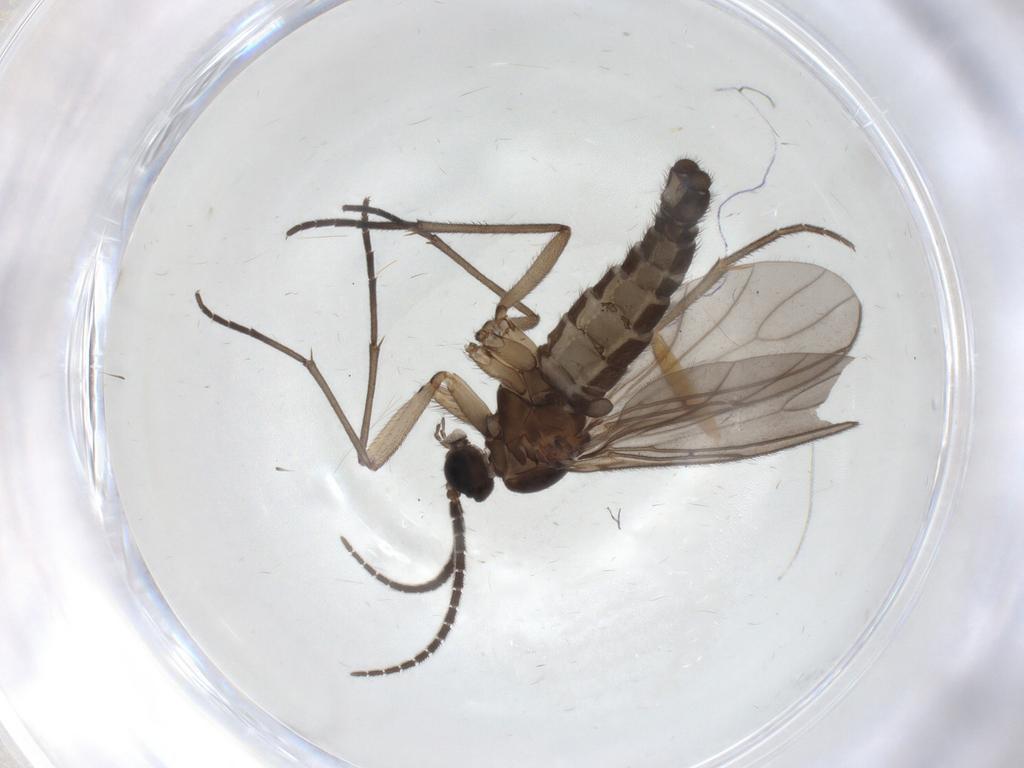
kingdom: Animalia
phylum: Arthropoda
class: Insecta
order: Diptera
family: Sciaridae
